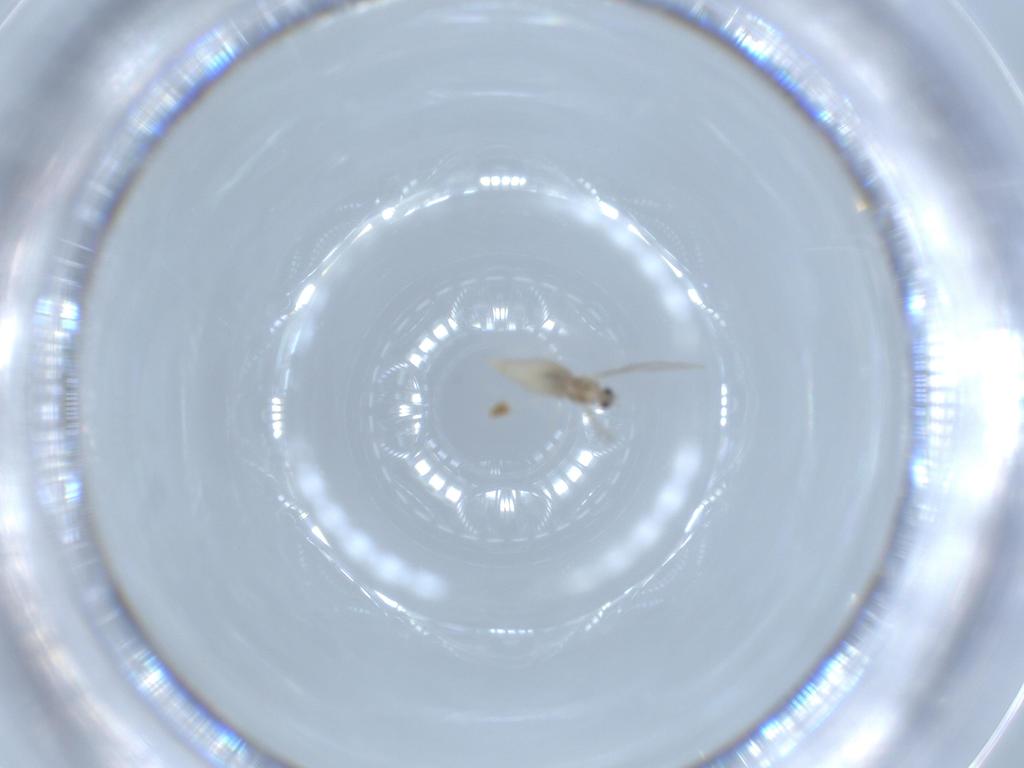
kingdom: Animalia
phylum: Arthropoda
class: Insecta
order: Diptera
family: Cecidomyiidae
